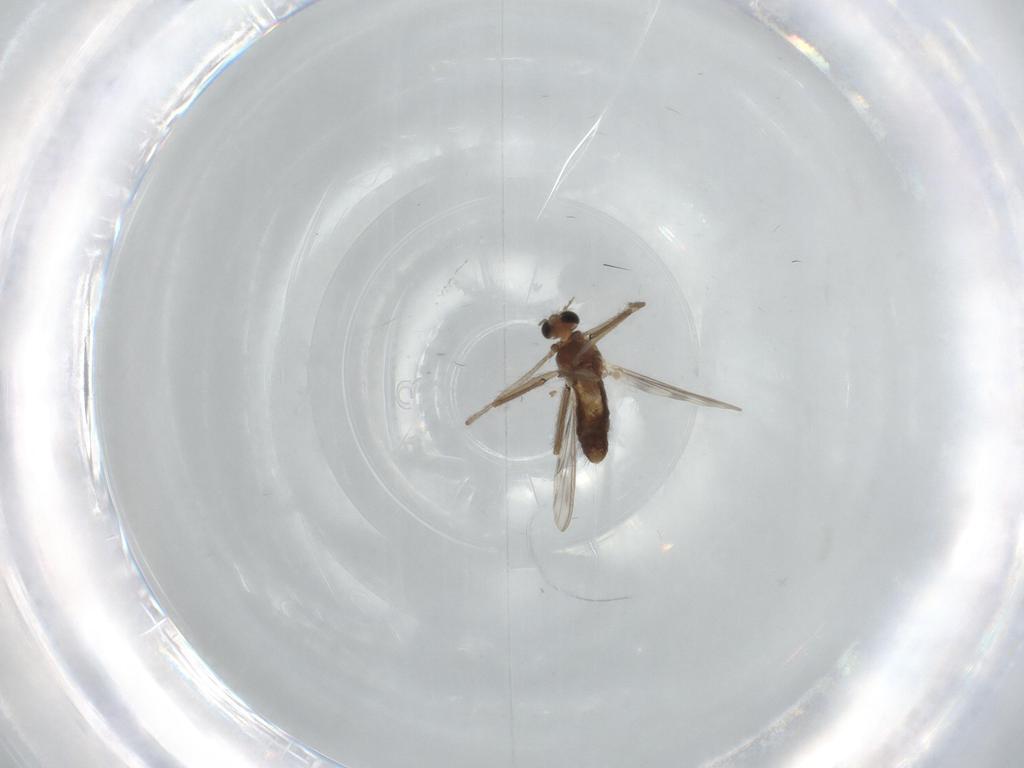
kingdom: Animalia
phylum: Arthropoda
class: Insecta
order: Diptera
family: Chironomidae
